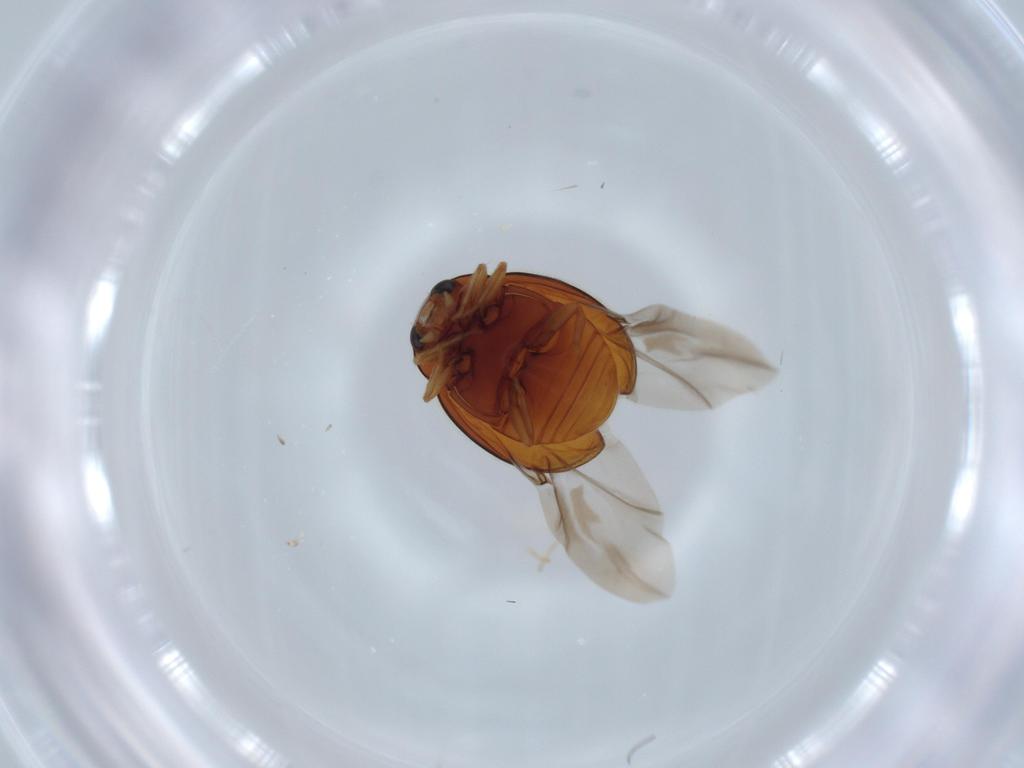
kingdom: Animalia
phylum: Arthropoda
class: Insecta
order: Coleoptera
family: Coccinellidae
